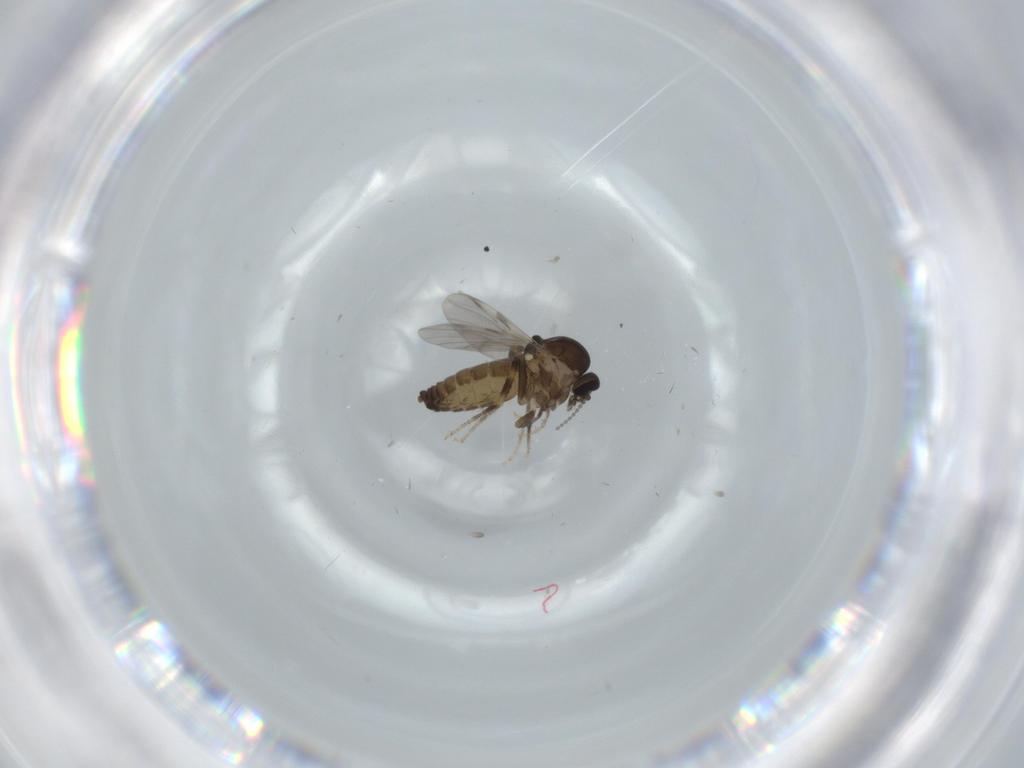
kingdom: Animalia
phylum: Arthropoda
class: Insecta
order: Diptera
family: Ceratopogonidae
